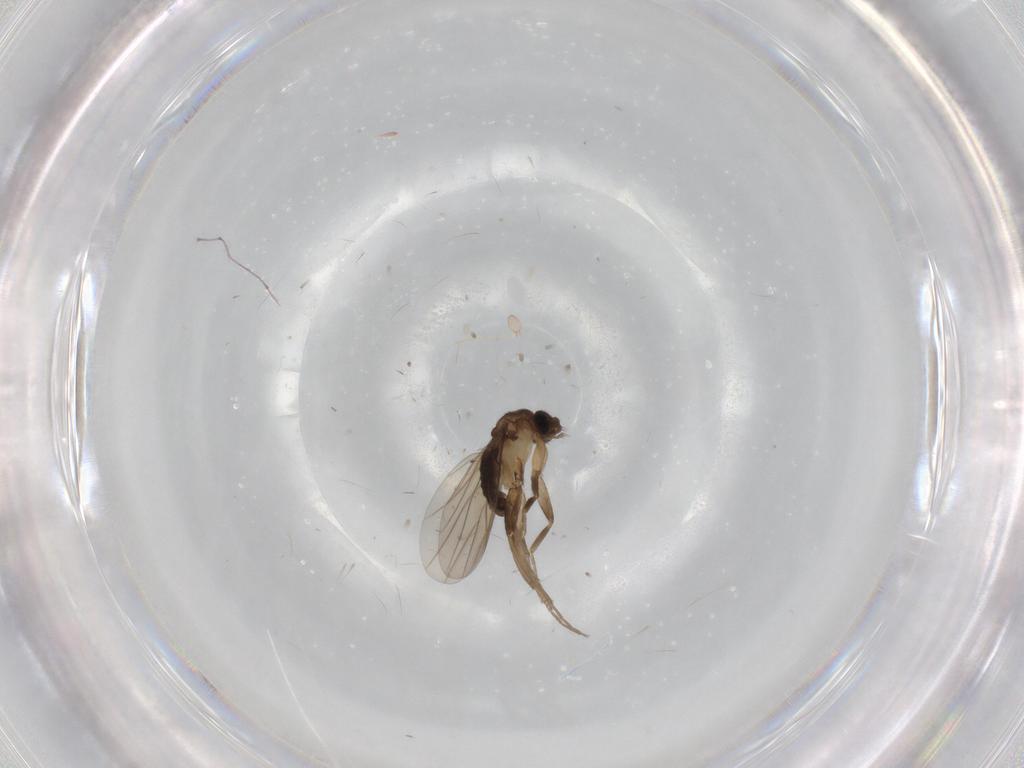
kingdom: Animalia
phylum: Arthropoda
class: Insecta
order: Diptera
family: Phoridae
